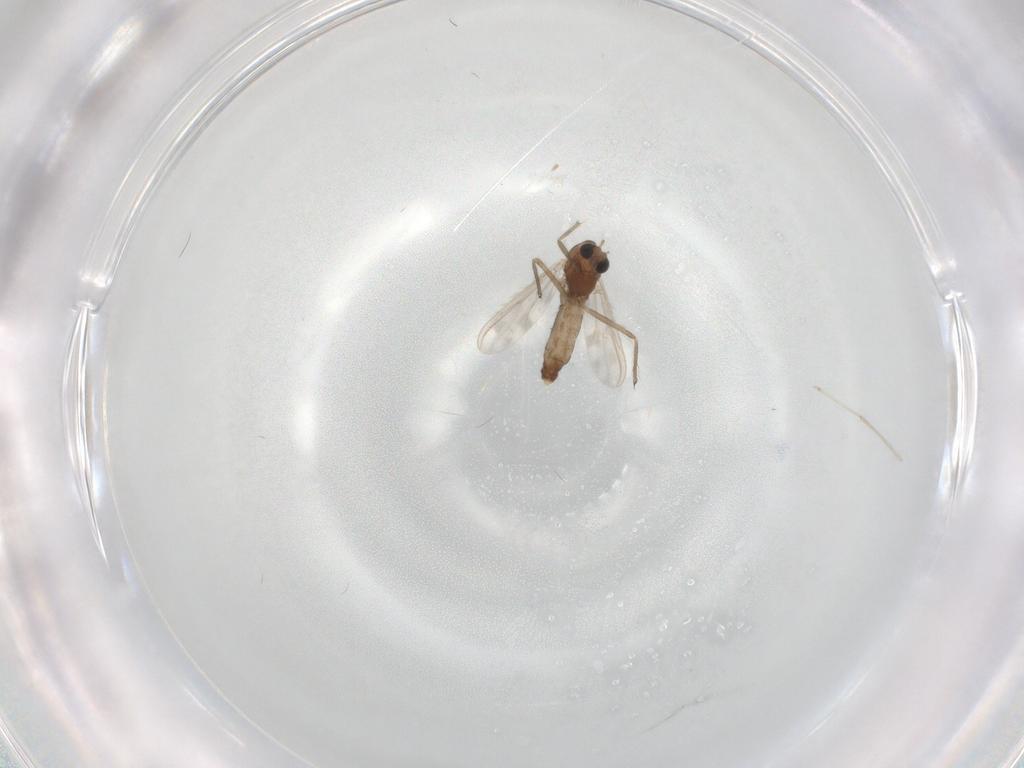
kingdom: Animalia
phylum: Arthropoda
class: Insecta
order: Diptera
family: Chironomidae
